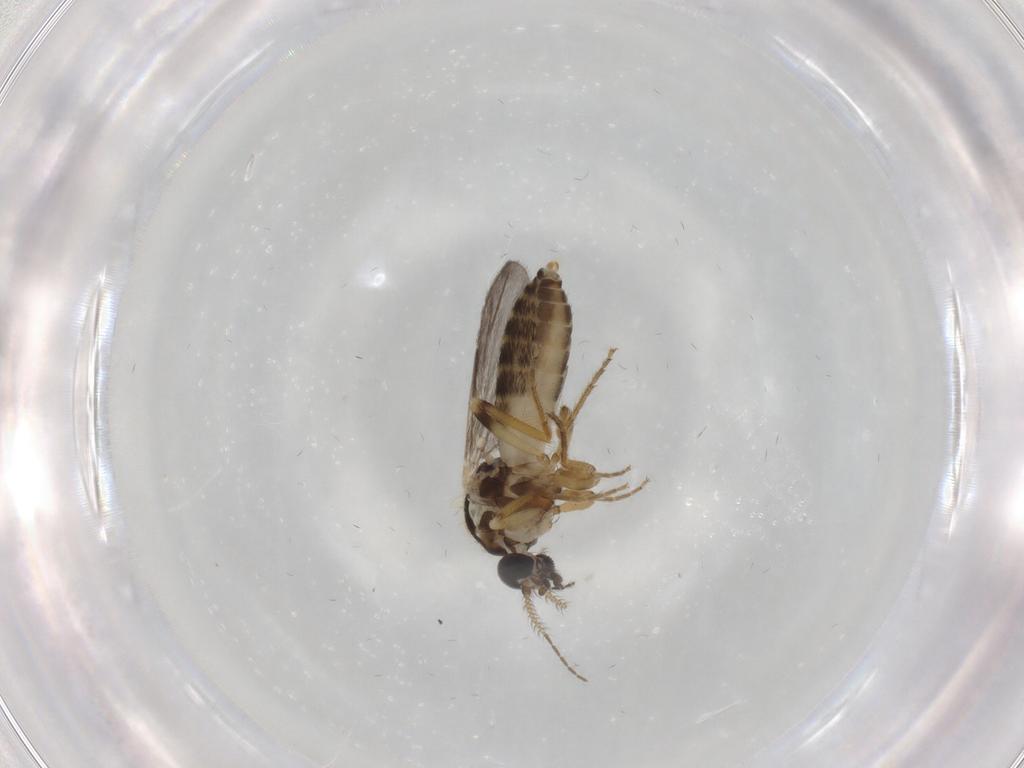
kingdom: Animalia
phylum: Arthropoda
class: Insecta
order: Diptera
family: Ceratopogonidae
